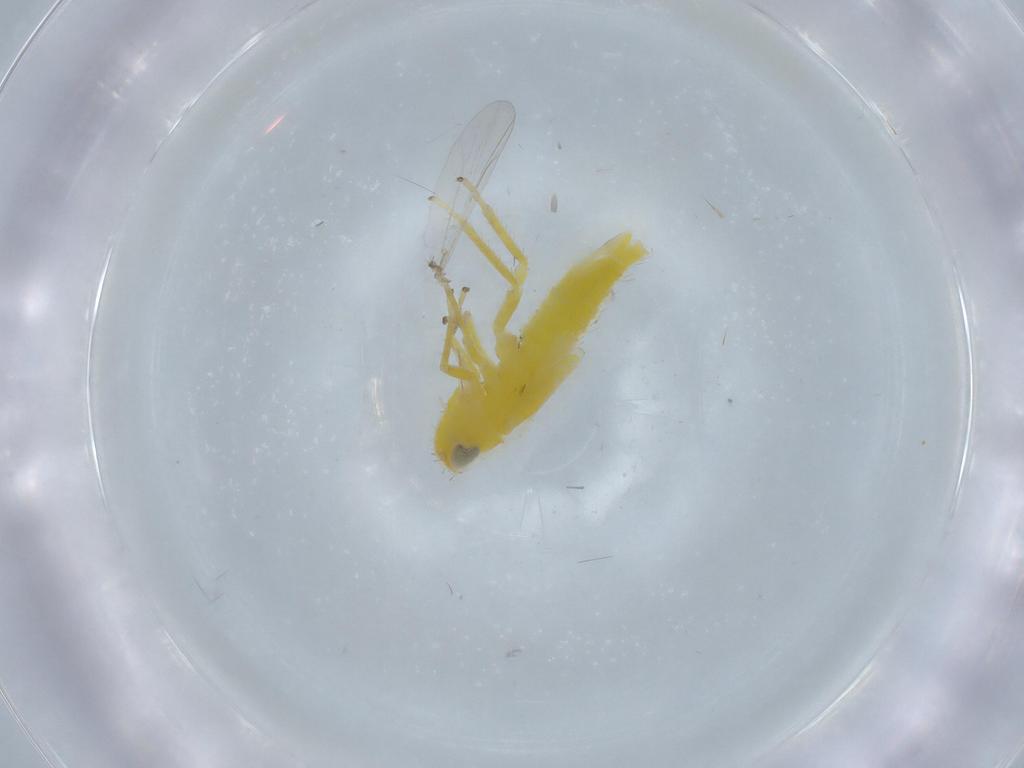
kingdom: Animalia
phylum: Arthropoda
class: Insecta
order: Hemiptera
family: Cicadellidae
